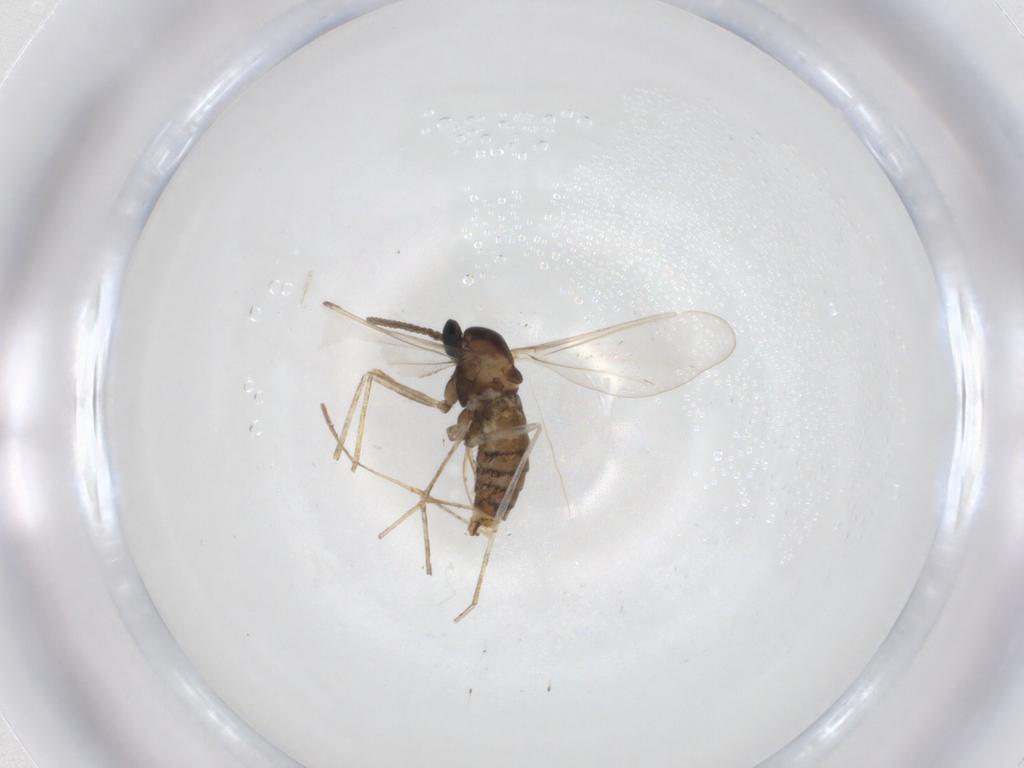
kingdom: Animalia
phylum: Arthropoda
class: Insecta
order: Diptera
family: Cecidomyiidae
